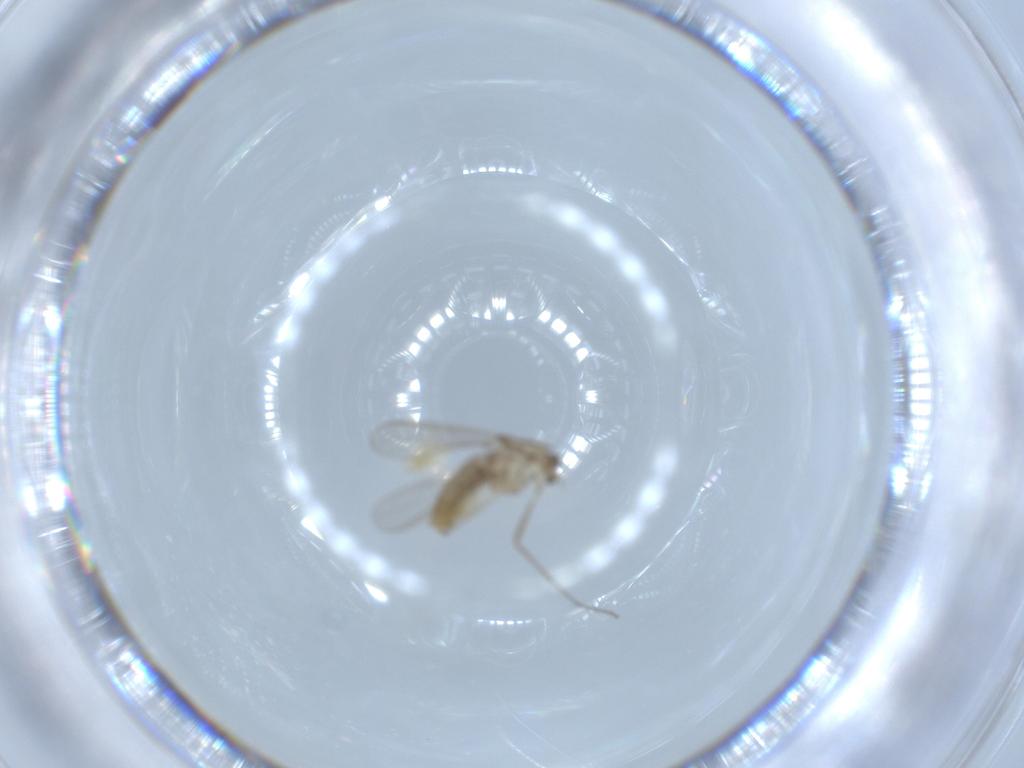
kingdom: Animalia
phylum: Arthropoda
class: Insecta
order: Diptera
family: Chironomidae
